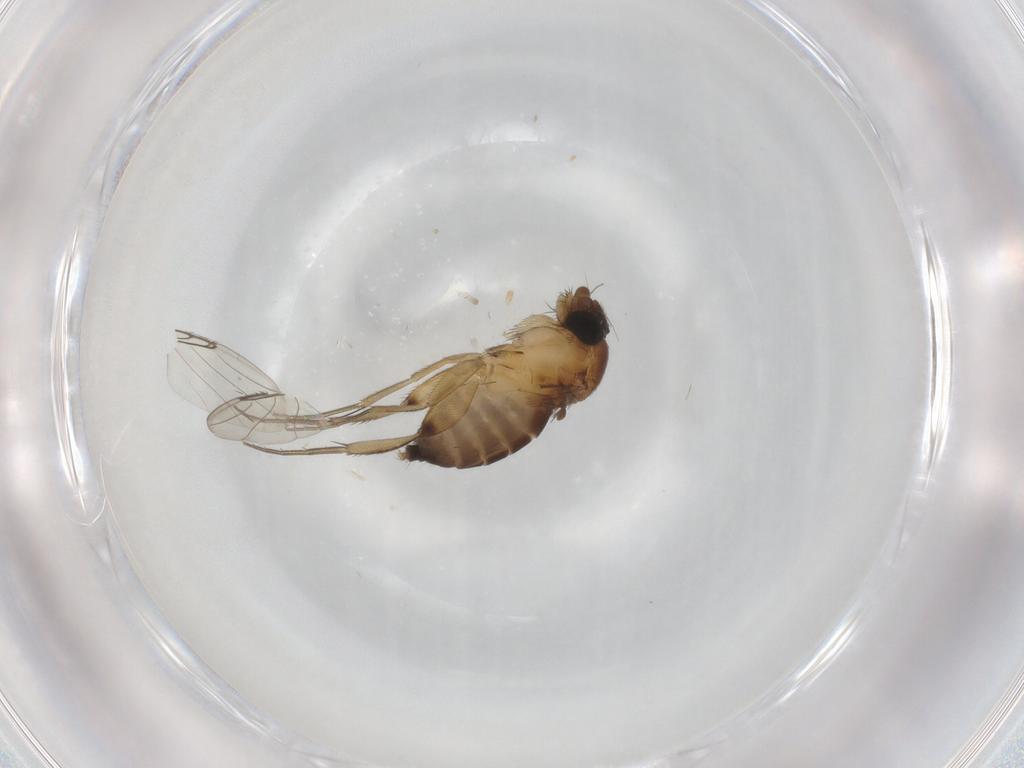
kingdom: Animalia
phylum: Arthropoda
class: Insecta
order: Diptera
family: Phoridae
